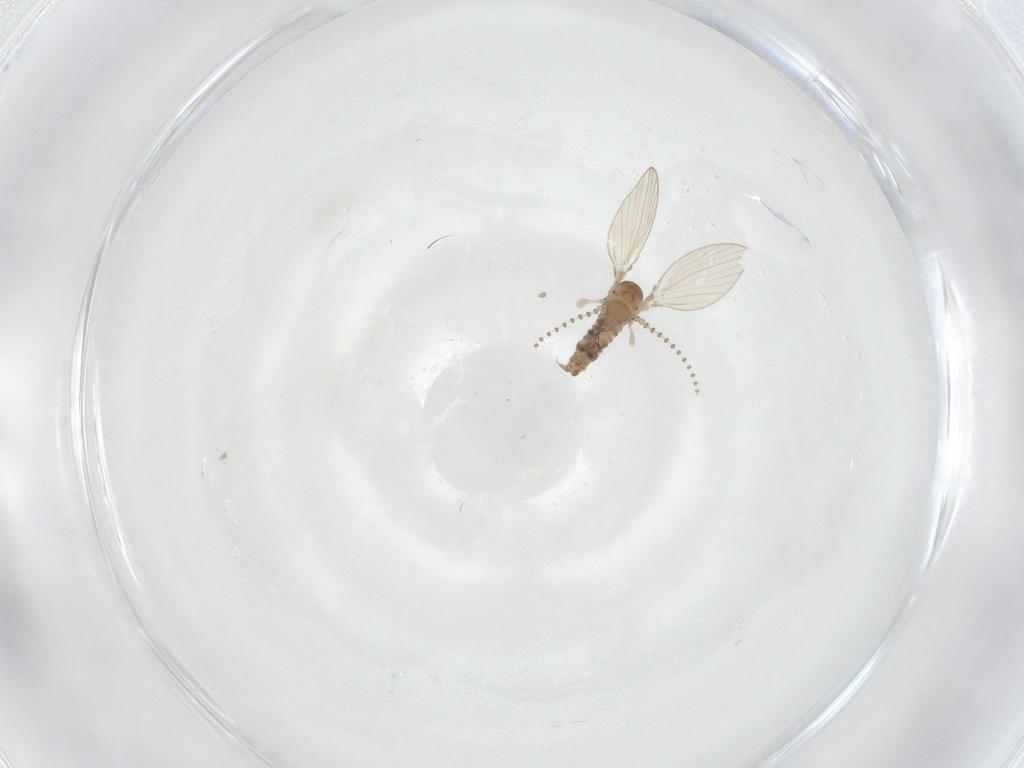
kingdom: Animalia
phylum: Arthropoda
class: Insecta
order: Diptera
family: Psychodidae
